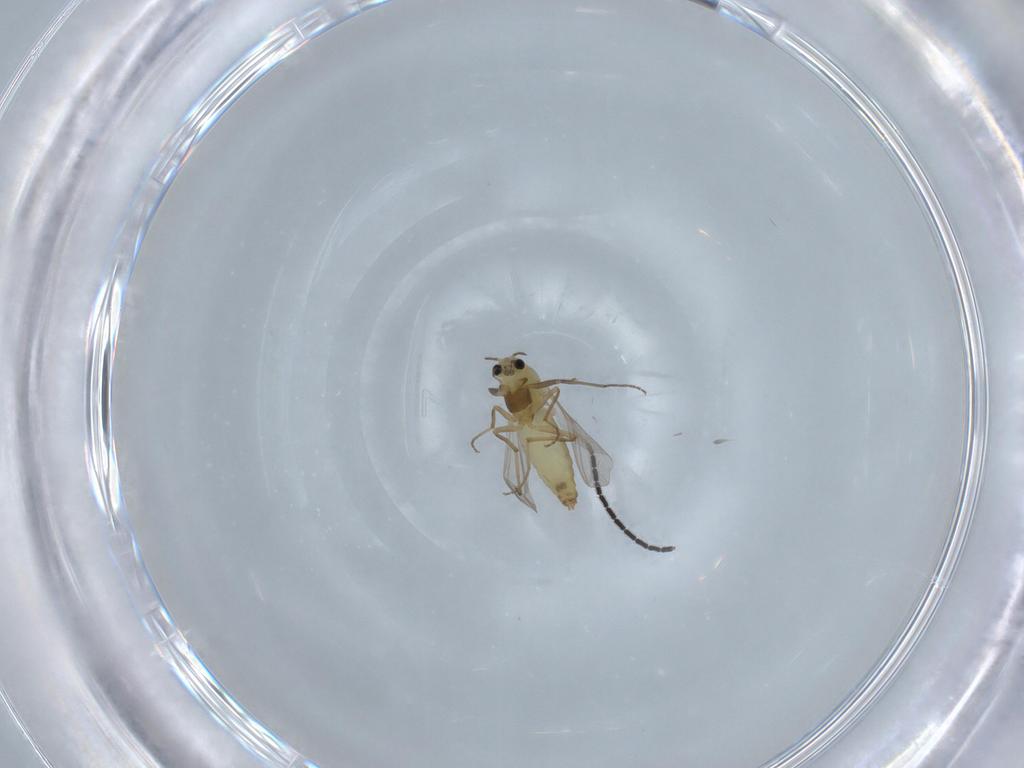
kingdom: Animalia
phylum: Arthropoda
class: Insecta
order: Diptera
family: Chironomidae
